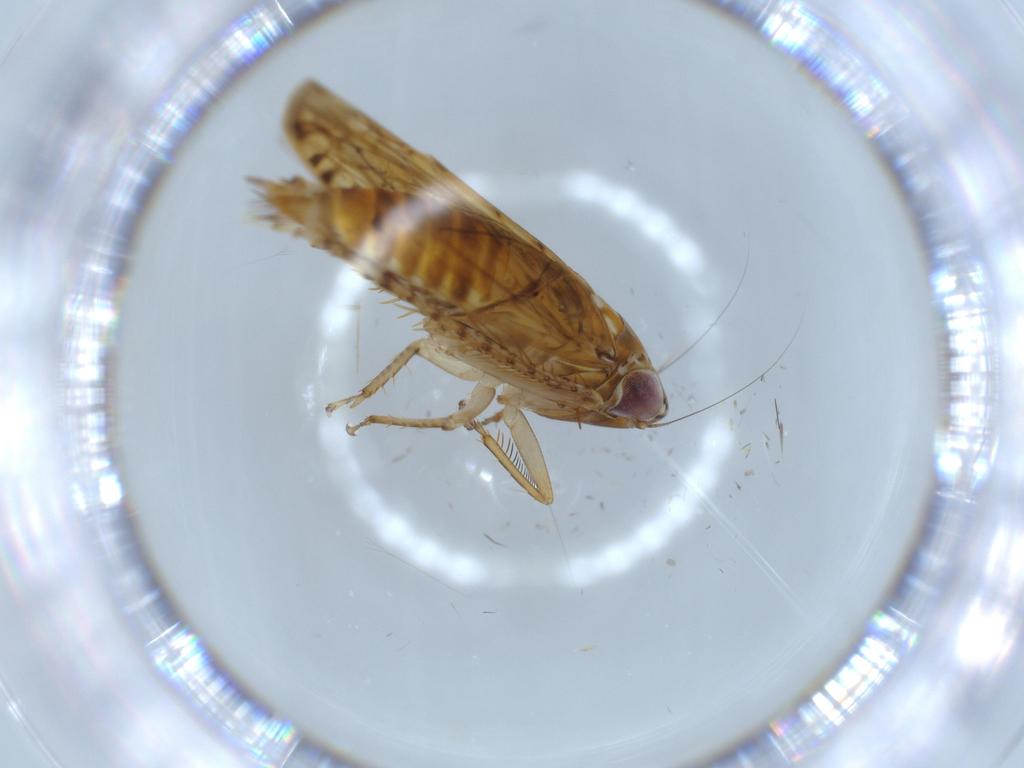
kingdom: Animalia
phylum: Arthropoda
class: Insecta
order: Hemiptera
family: Cicadellidae
